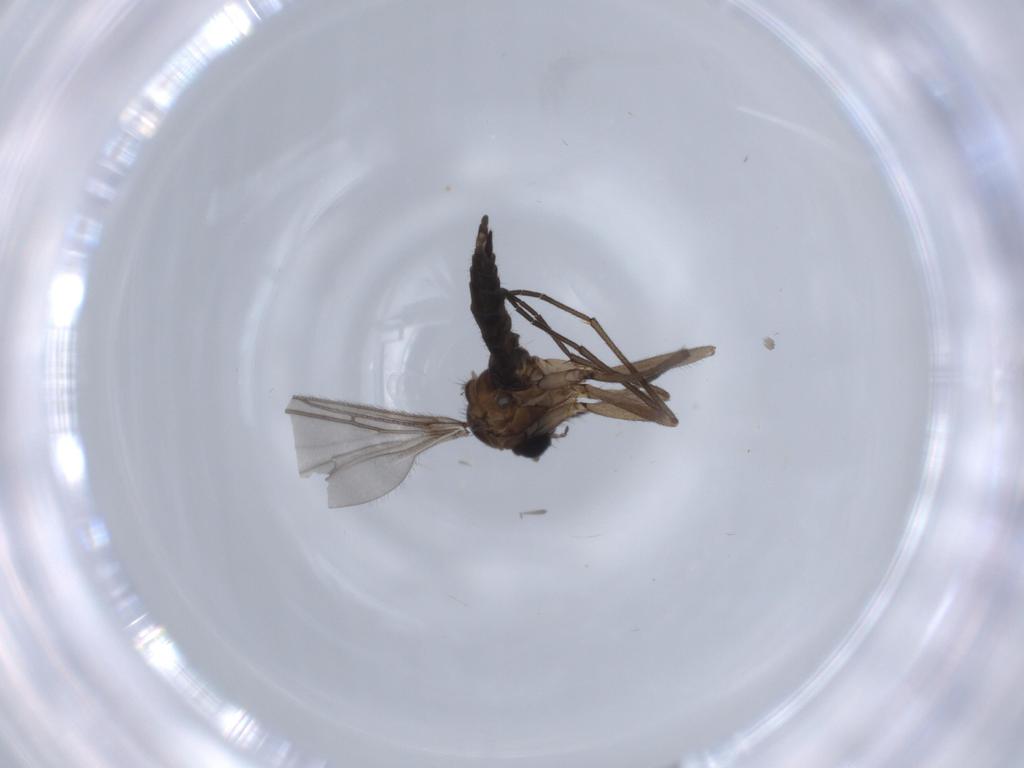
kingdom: Animalia
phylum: Arthropoda
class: Insecta
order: Diptera
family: Sciaridae
